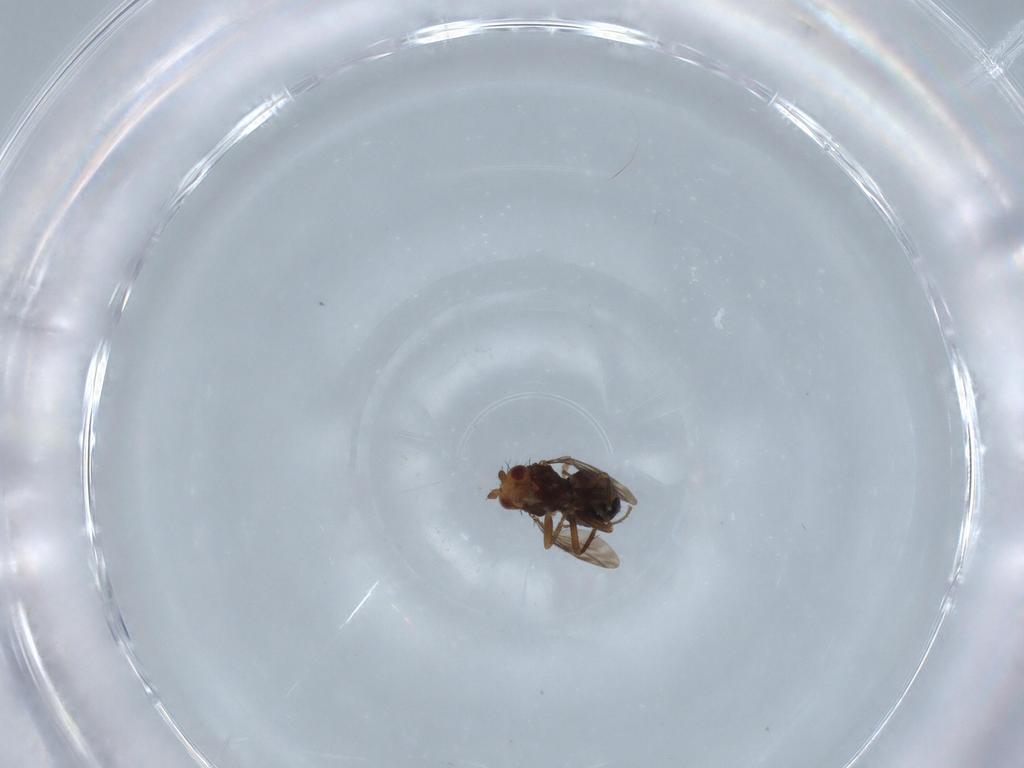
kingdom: Animalia
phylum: Arthropoda
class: Insecta
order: Diptera
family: Sphaeroceridae
